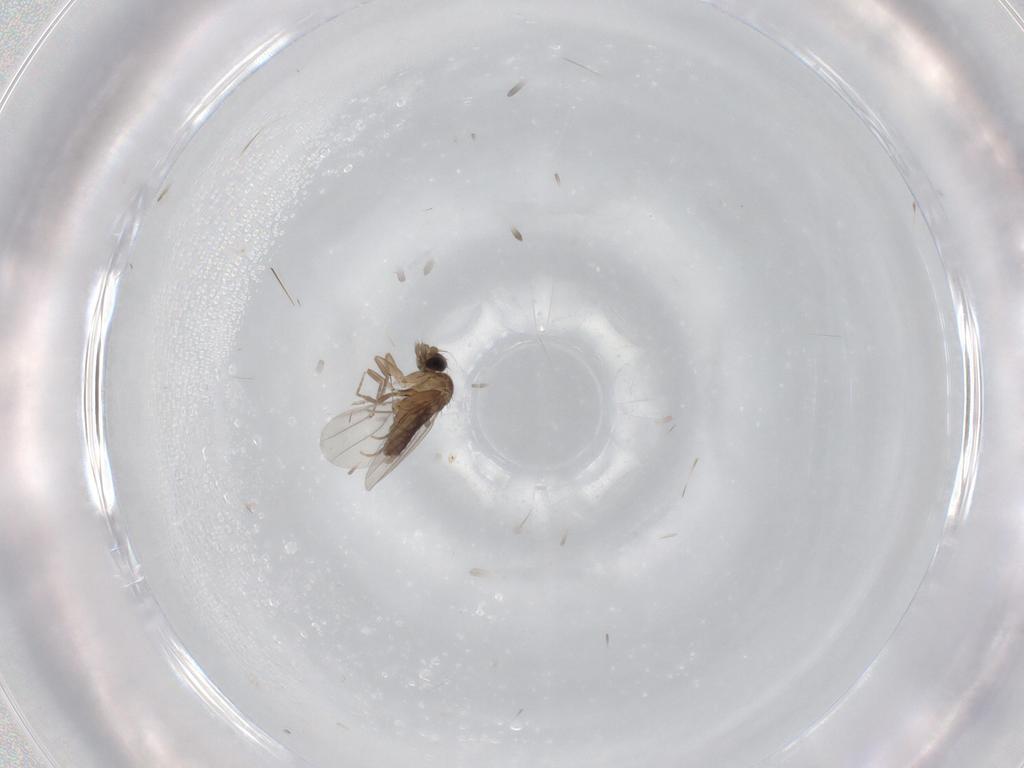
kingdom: Animalia
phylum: Arthropoda
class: Insecta
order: Diptera
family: Phoridae
